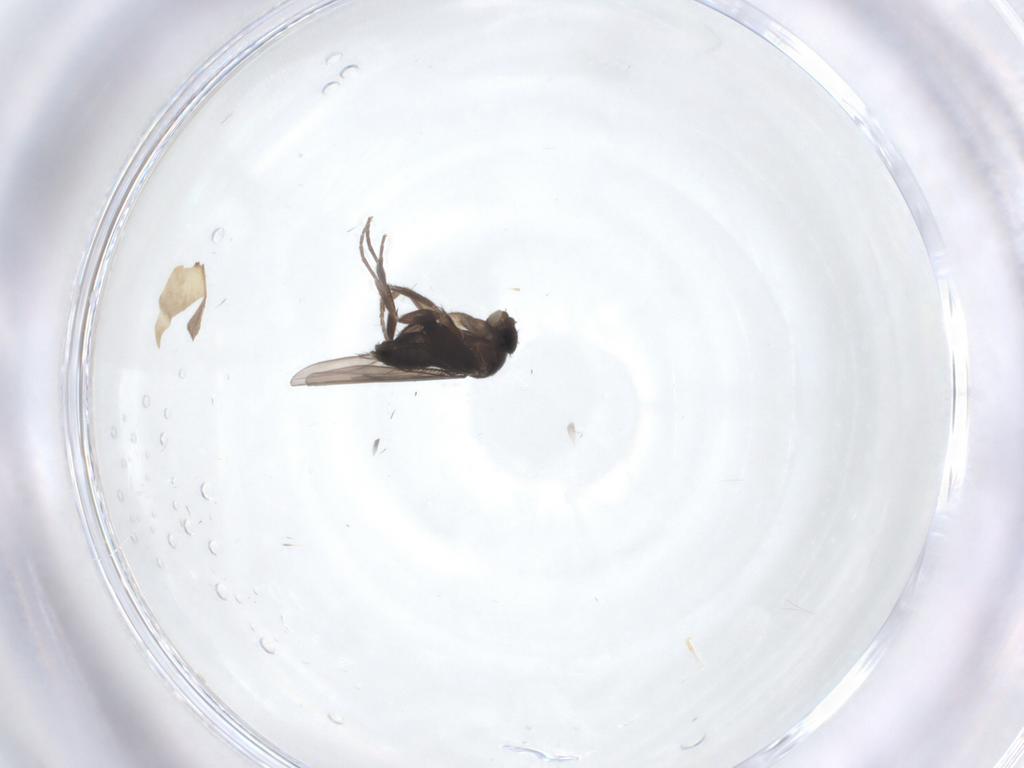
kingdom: Animalia
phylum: Arthropoda
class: Insecta
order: Diptera
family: Phoridae
